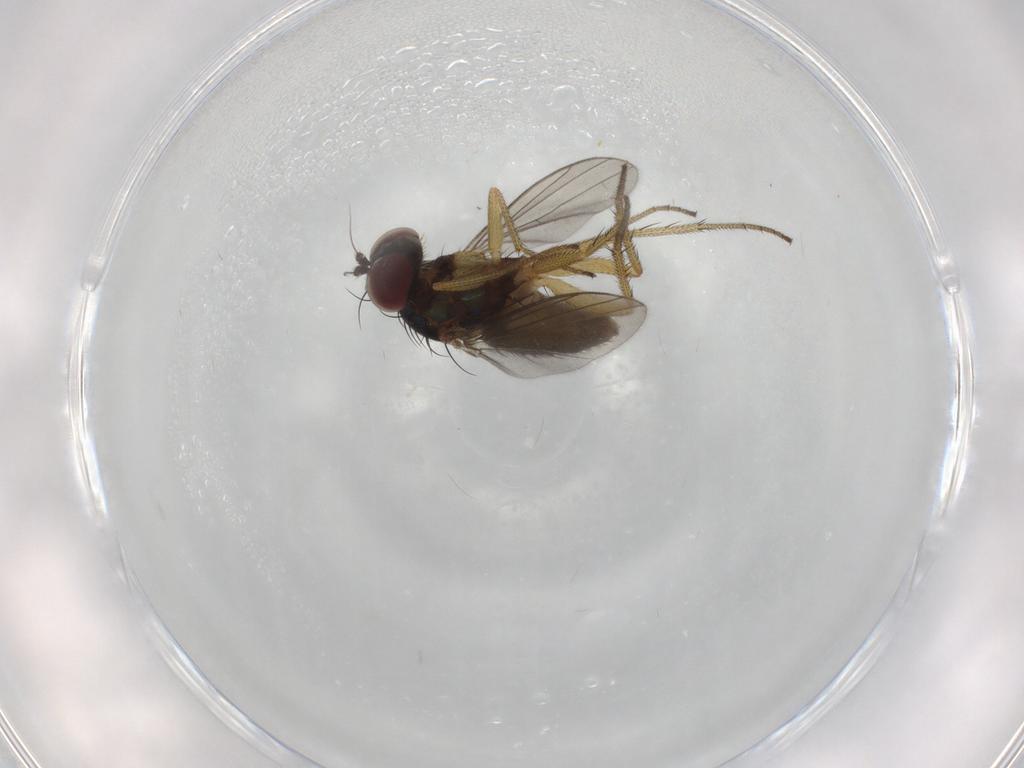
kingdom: Animalia
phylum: Arthropoda
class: Insecta
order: Diptera
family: Dolichopodidae
